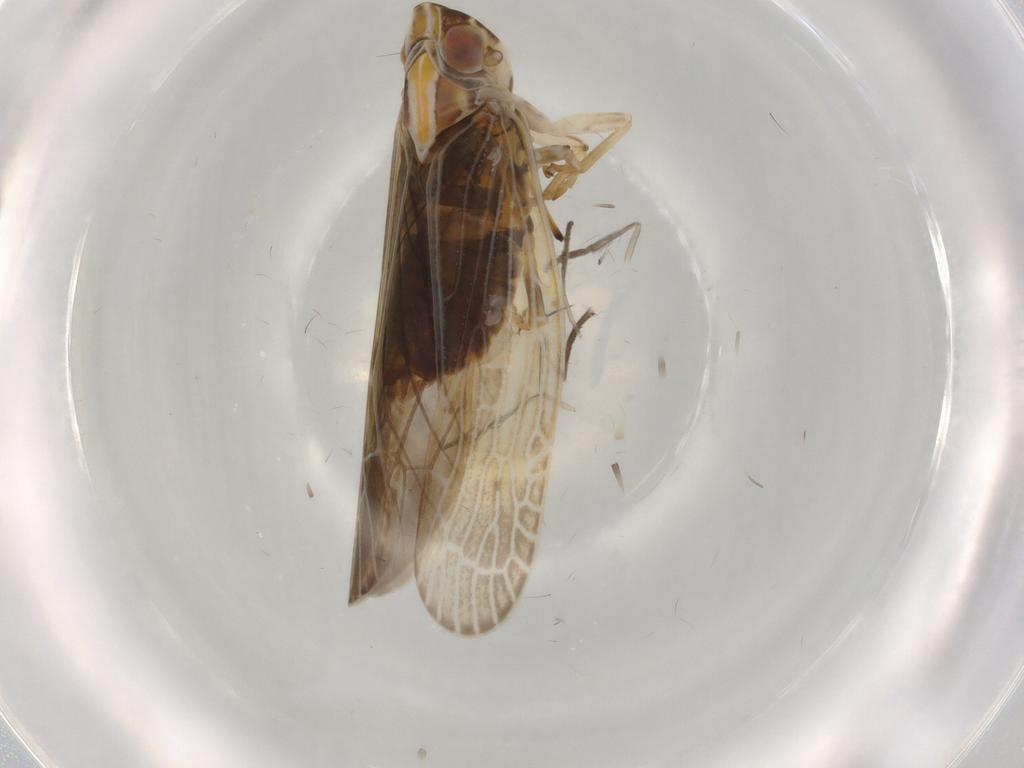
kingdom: Animalia
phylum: Arthropoda
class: Insecta
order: Hemiptera
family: Achilidae
